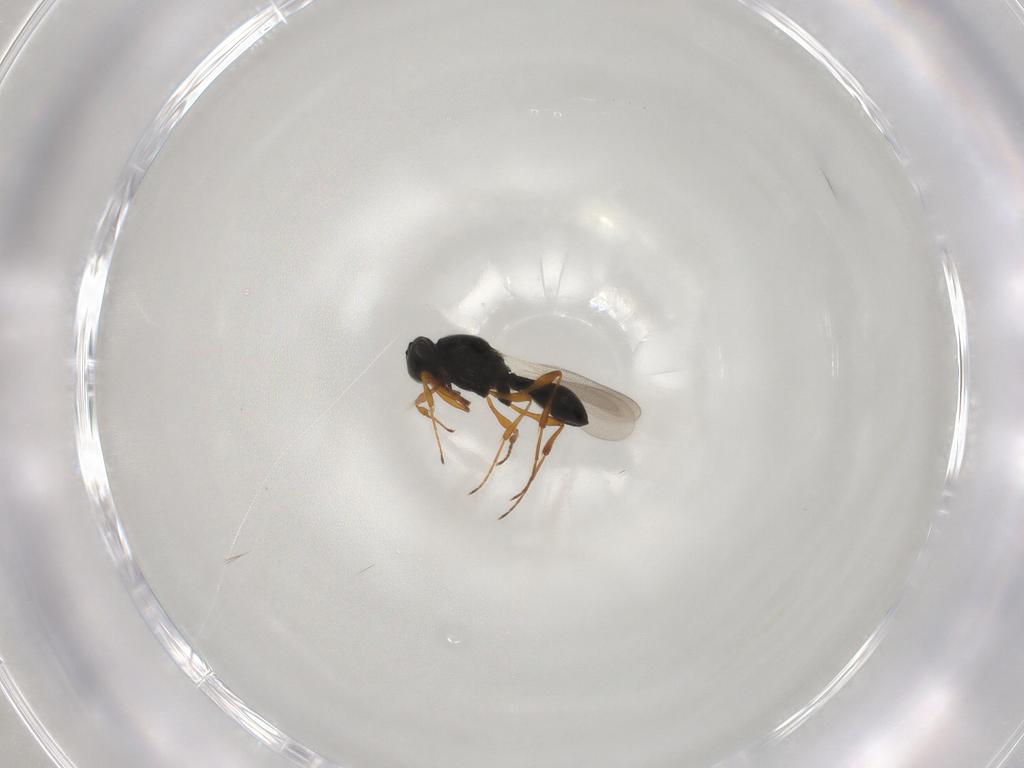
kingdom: Animalia
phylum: Arthropoda
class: Insecta
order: Hymenoptera
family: Platygastridae
